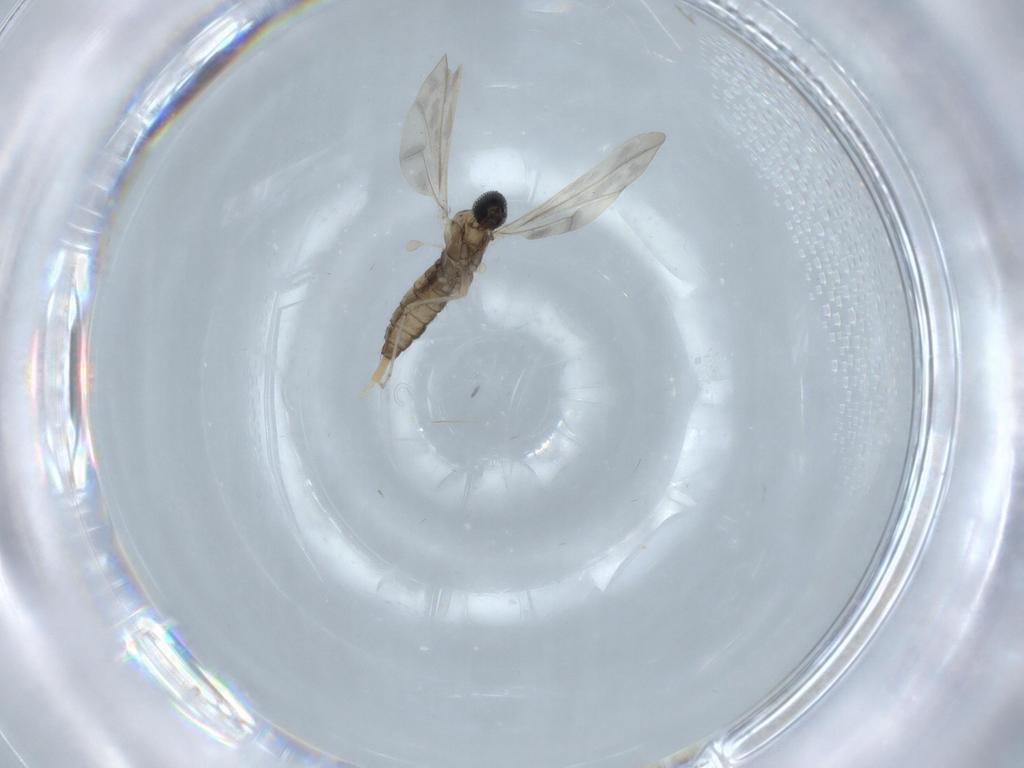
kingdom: Animalia
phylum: Arthropoda
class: Insecta
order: Diptera
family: Cecidomyiidae
